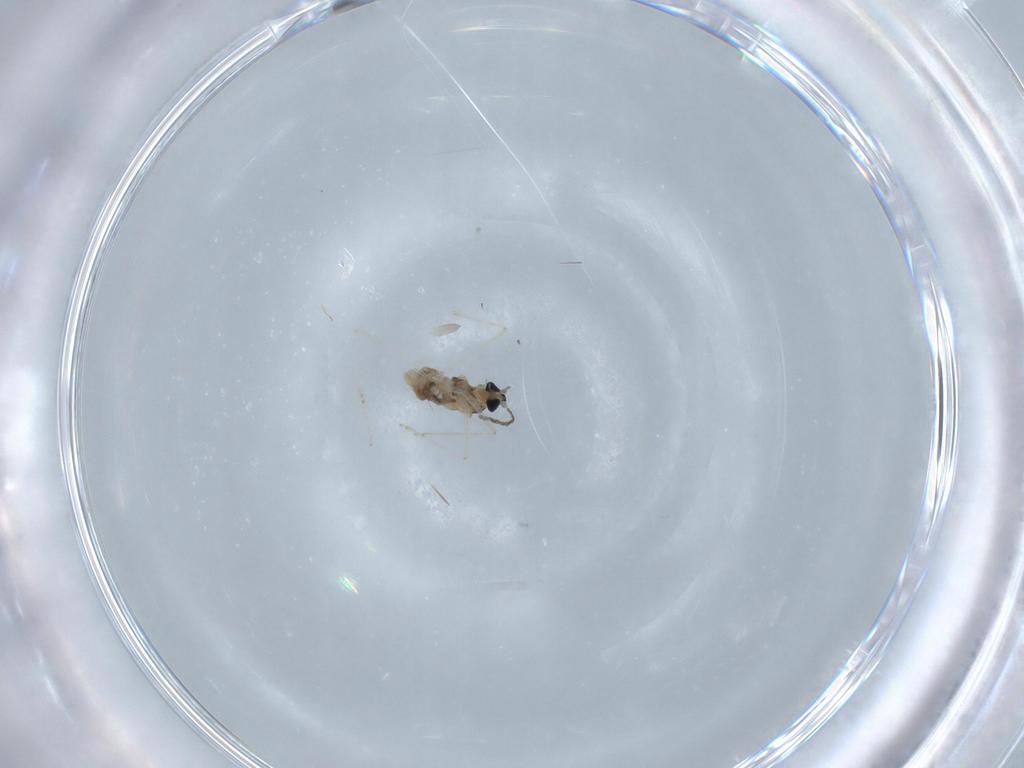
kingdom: Animalia
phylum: Arthropoda
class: Insecta
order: Diptera
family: Cecidomyiidae
